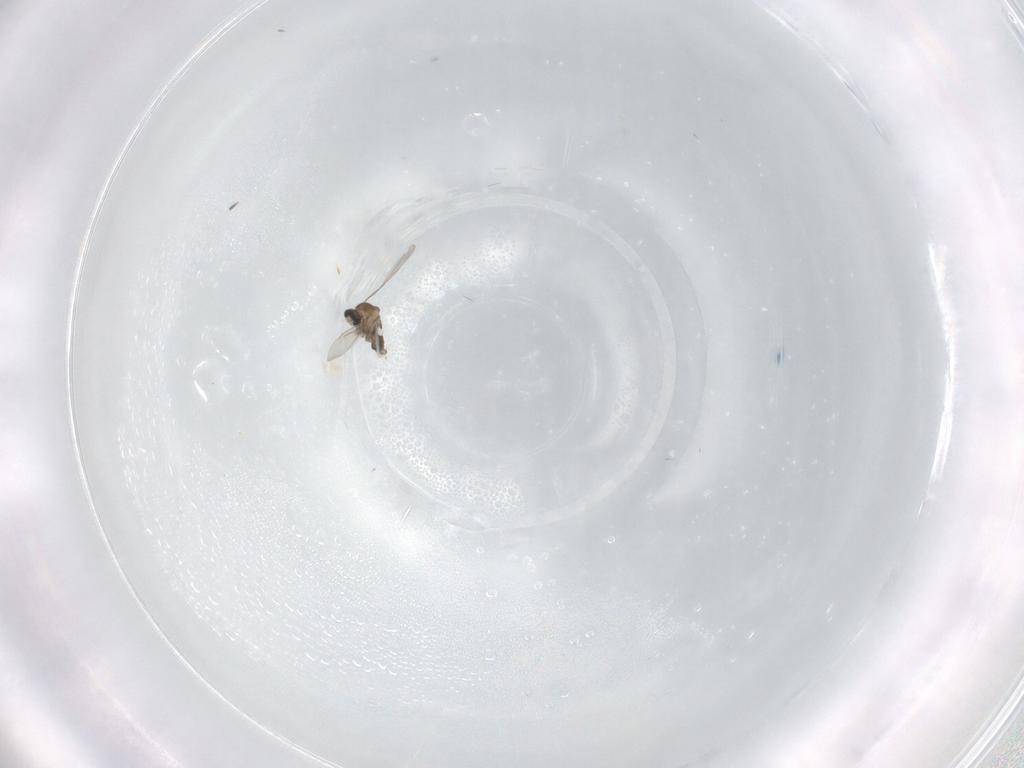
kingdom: Animalia
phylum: Arthropoda
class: Insecta
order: Diptera
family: Cecidomyiidae
